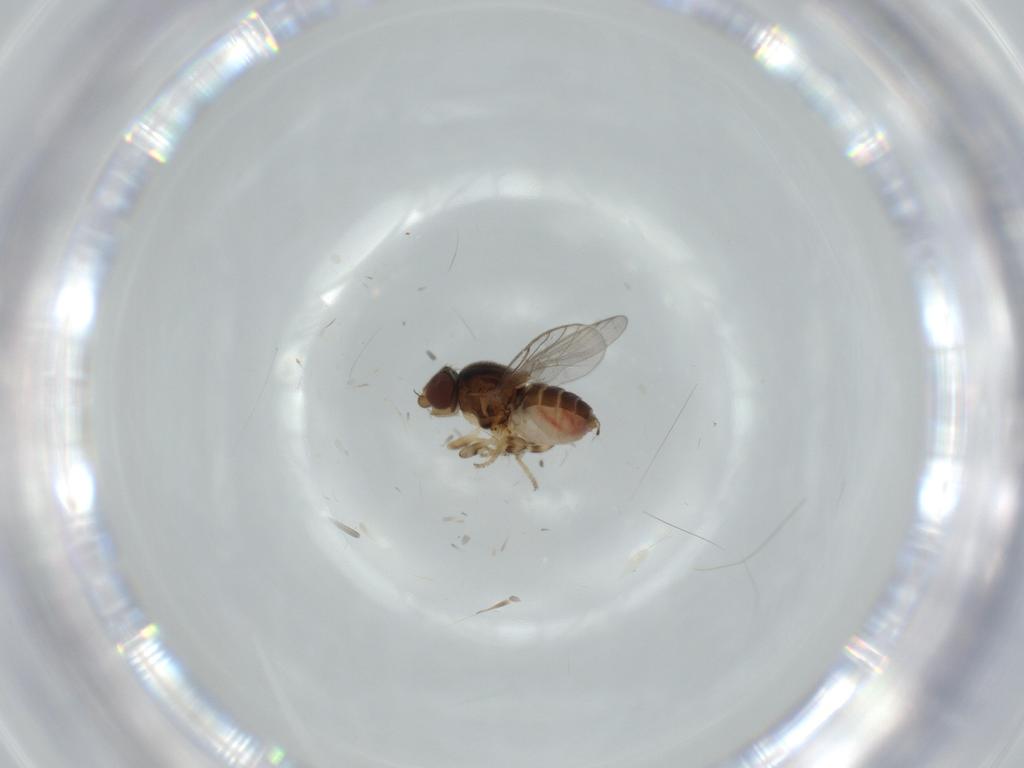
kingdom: Animalia
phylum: Arthropoda
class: Insecta
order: Diptera
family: Chloropidae
